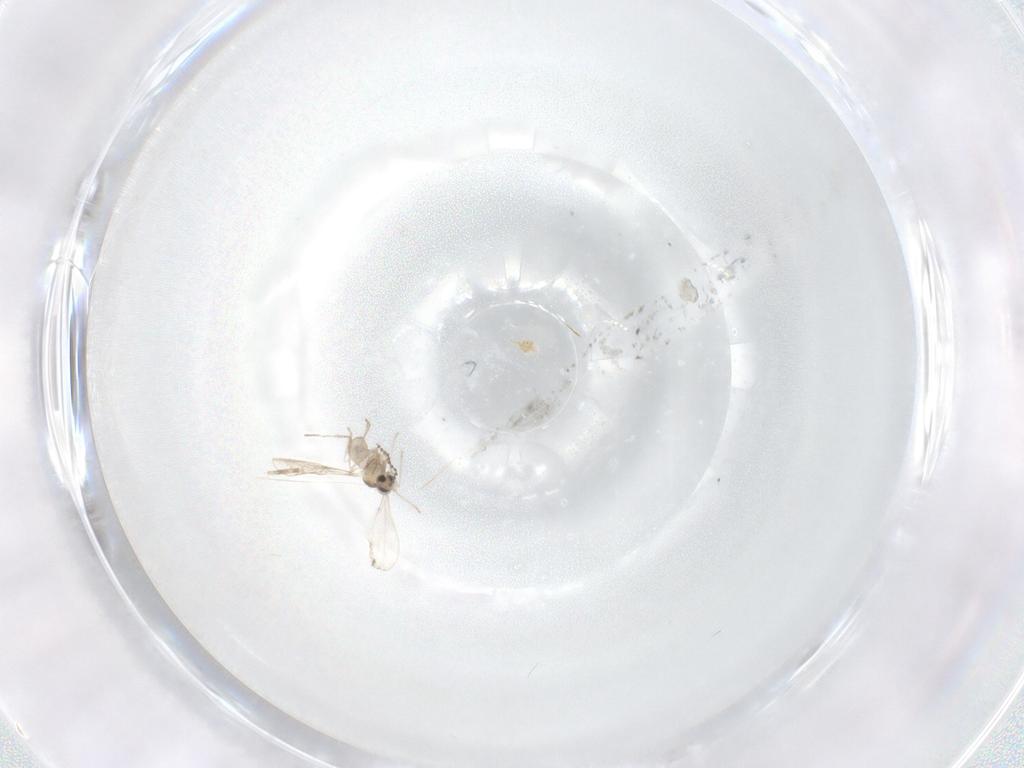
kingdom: Animalia
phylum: Arthropoda
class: Insecta
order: Diptera
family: Cecidomyiidae
